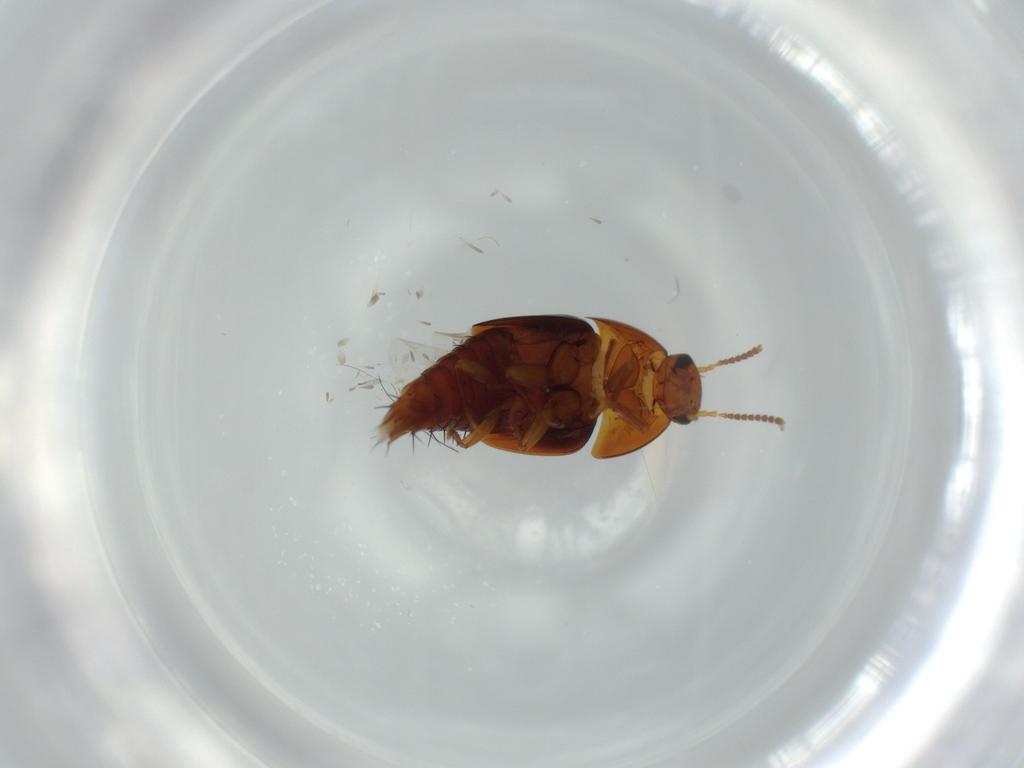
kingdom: Animalia
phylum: Arthropoda
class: Insecta
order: Coleoptera
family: Staphylinidae
